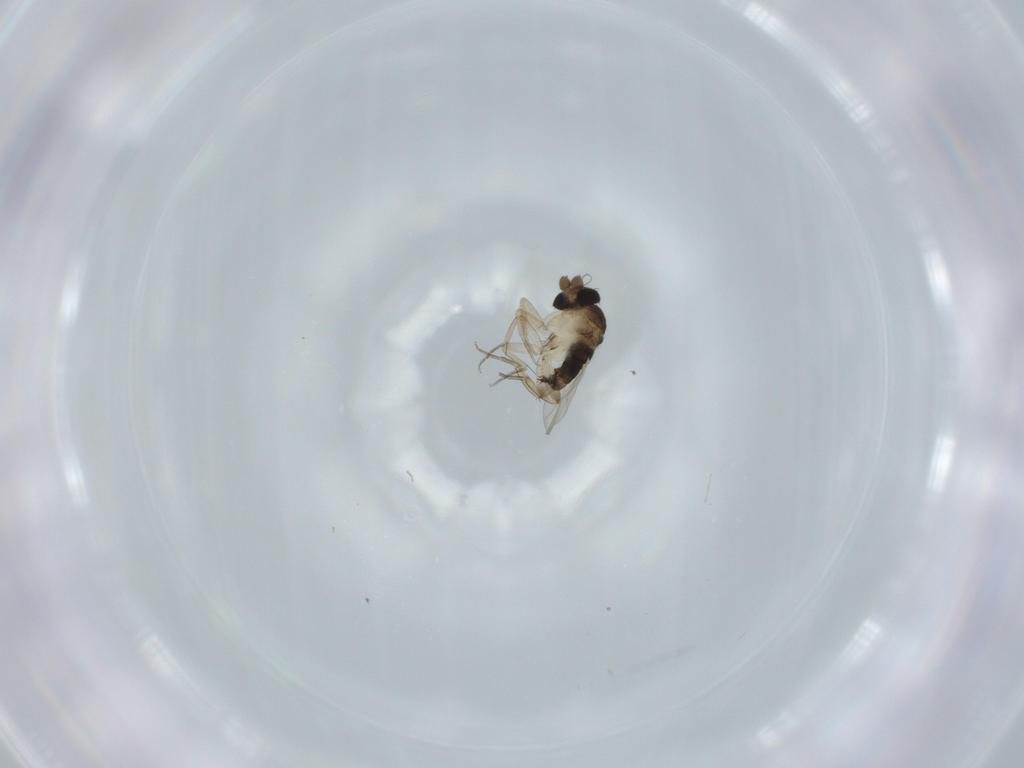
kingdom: Animalia
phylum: Arthropoda
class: Insecta
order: Diptera
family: Phoridae
